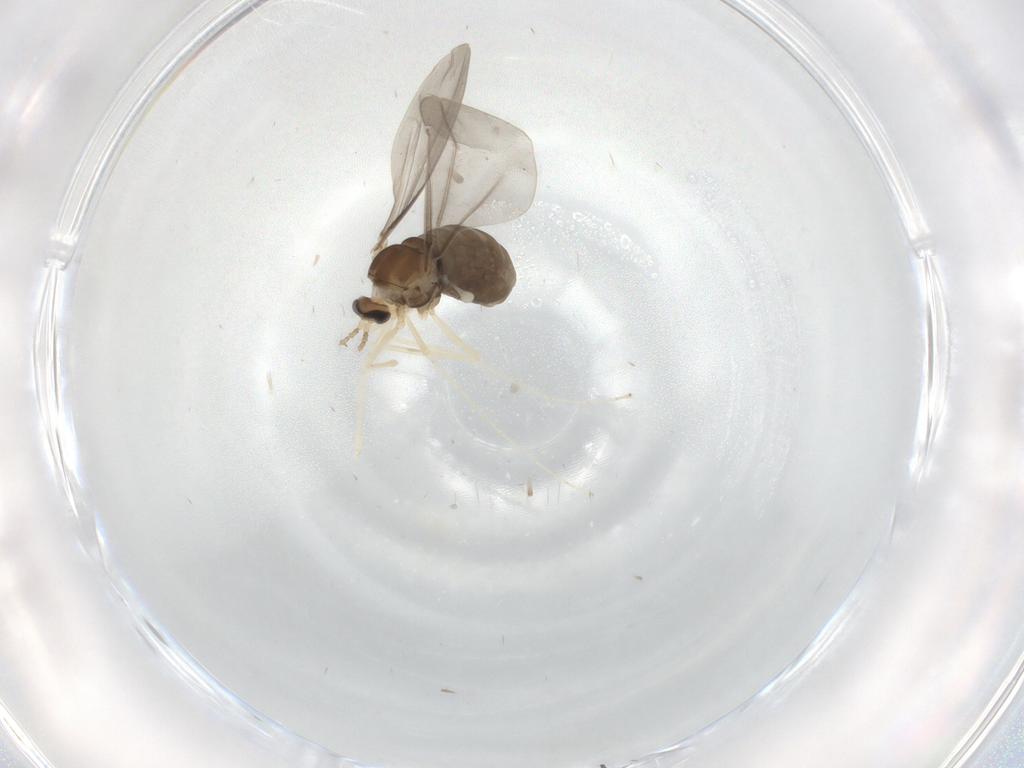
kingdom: Animalia
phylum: Arthropoda
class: Insecta
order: Diptera
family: Cecidomyiidae
